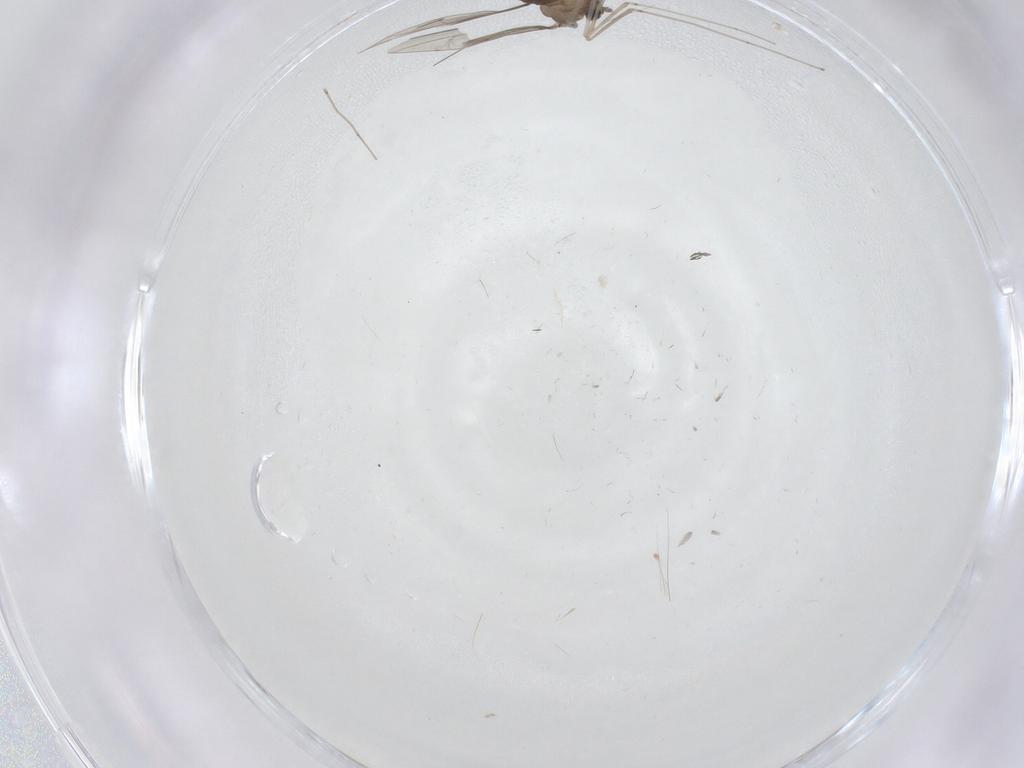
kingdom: Animalia
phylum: Arthropoda
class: Insecta
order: Diptera
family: Cecidomyiidae
